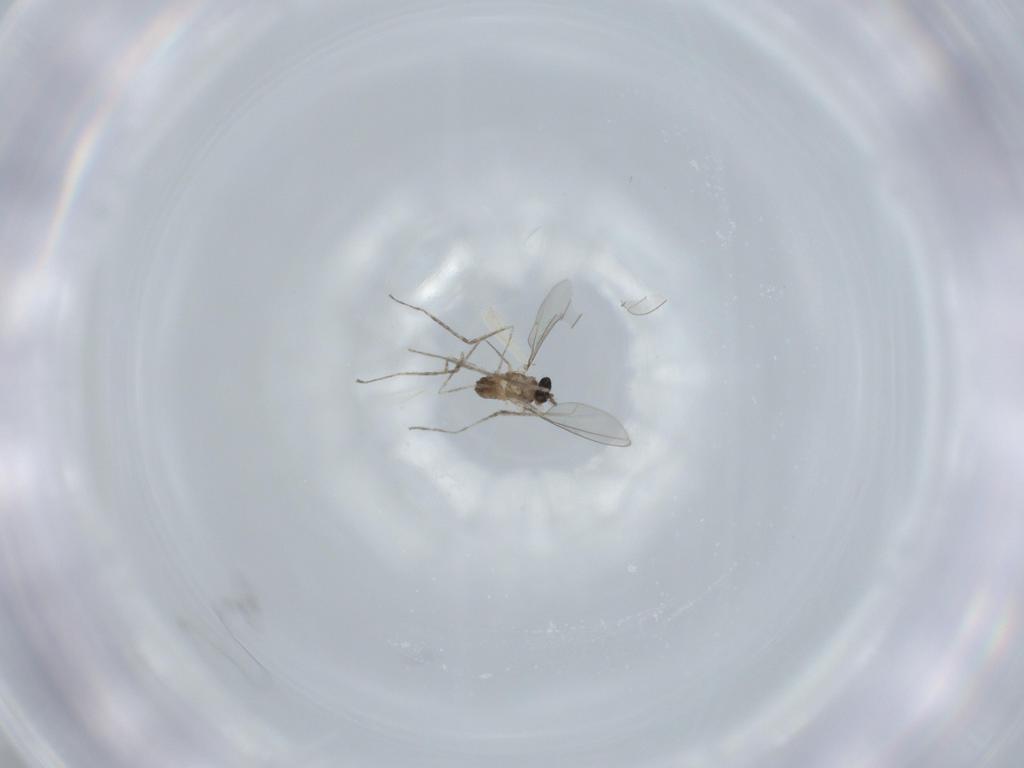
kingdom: Animalia
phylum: Arthropoda
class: Insecta
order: Diptera
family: Cecidomyiidae
